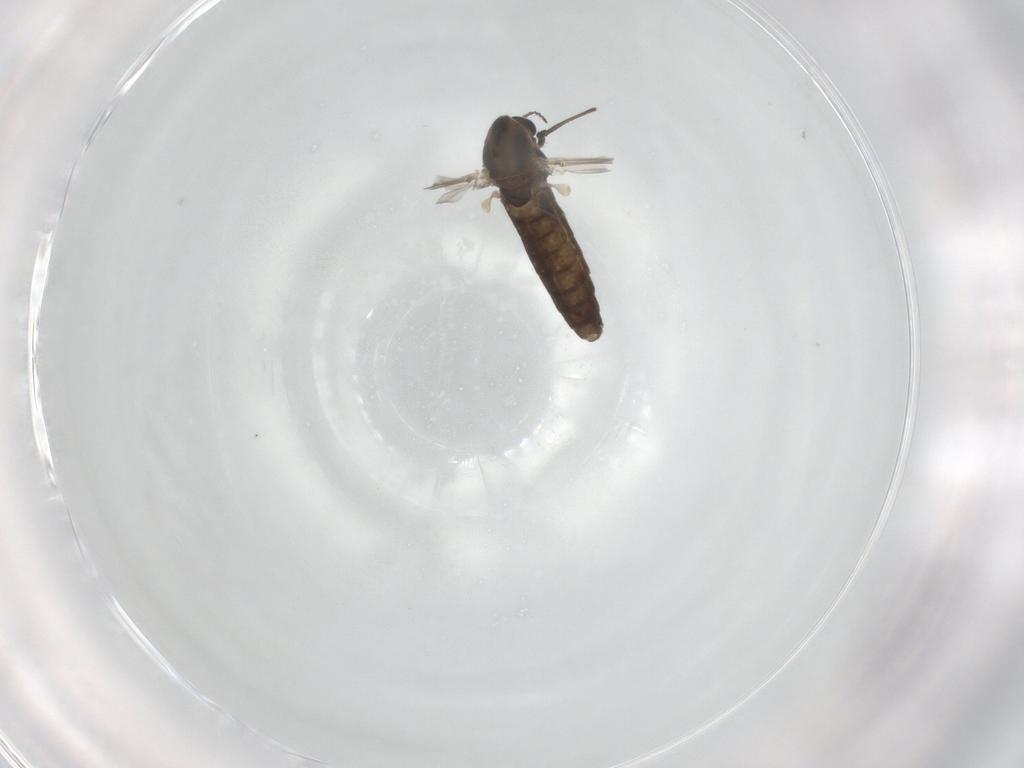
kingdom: Animalia
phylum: Arthropoda
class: Insecta
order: Diptera
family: Chironomidae
